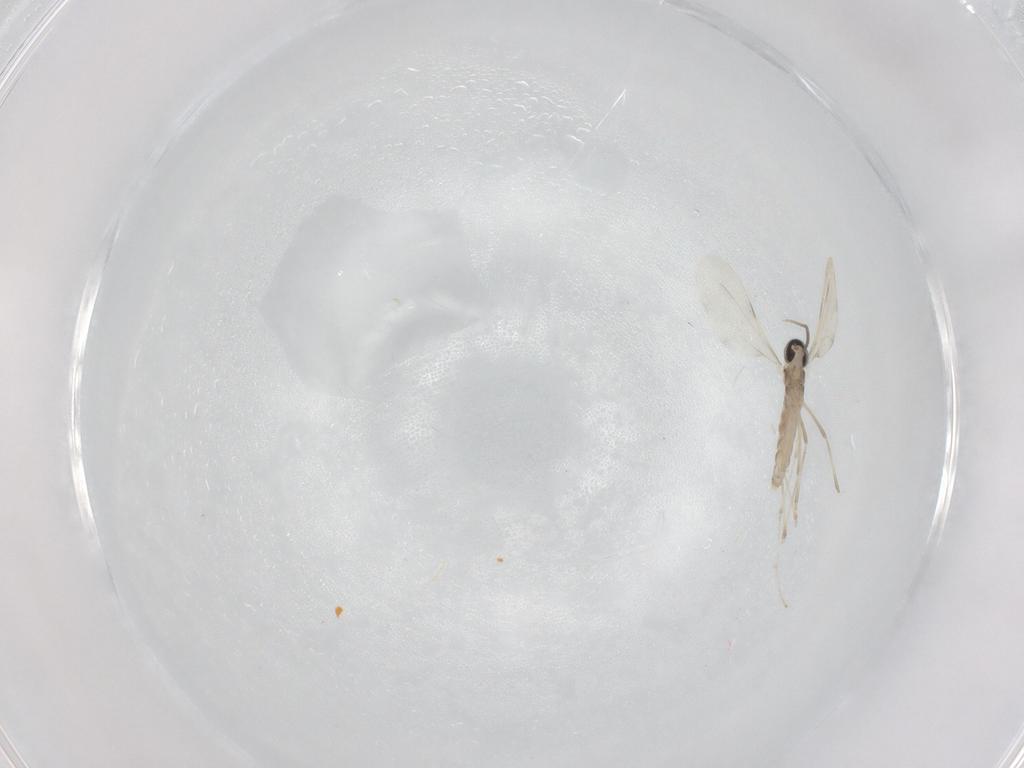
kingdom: Animalia
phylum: Arthropoda
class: Insecta
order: Diptera
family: Cecidomyiidae
